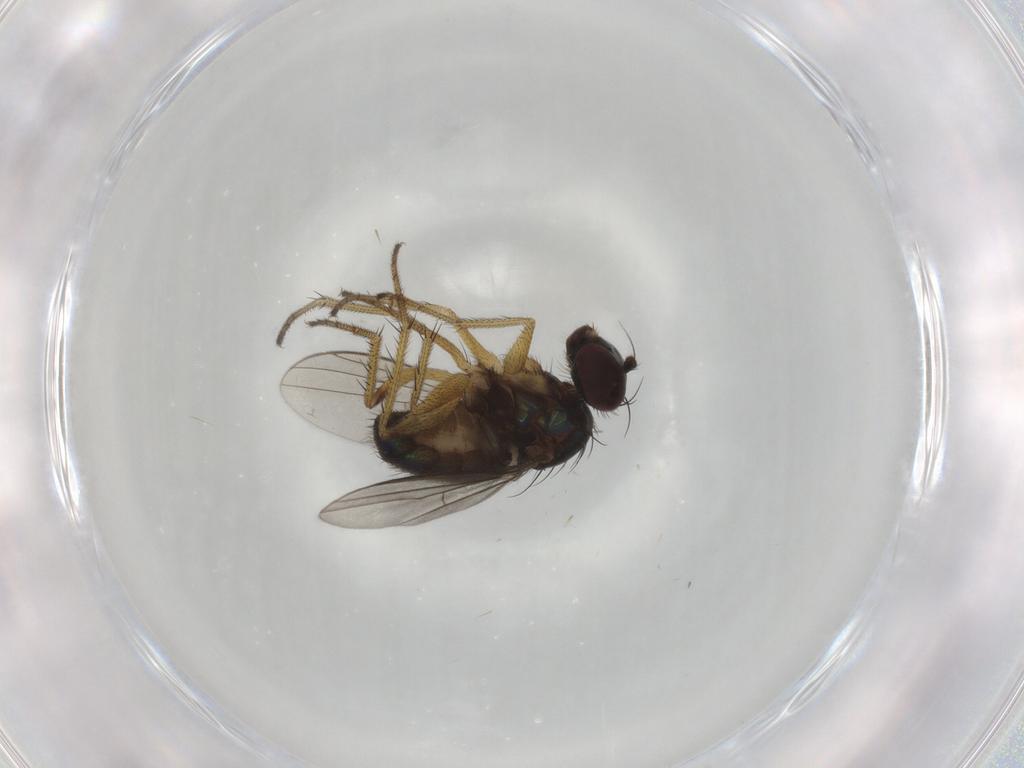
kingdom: Animalia
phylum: Arthropoda
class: Insecta
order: Diptera
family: Dolichopodidae
